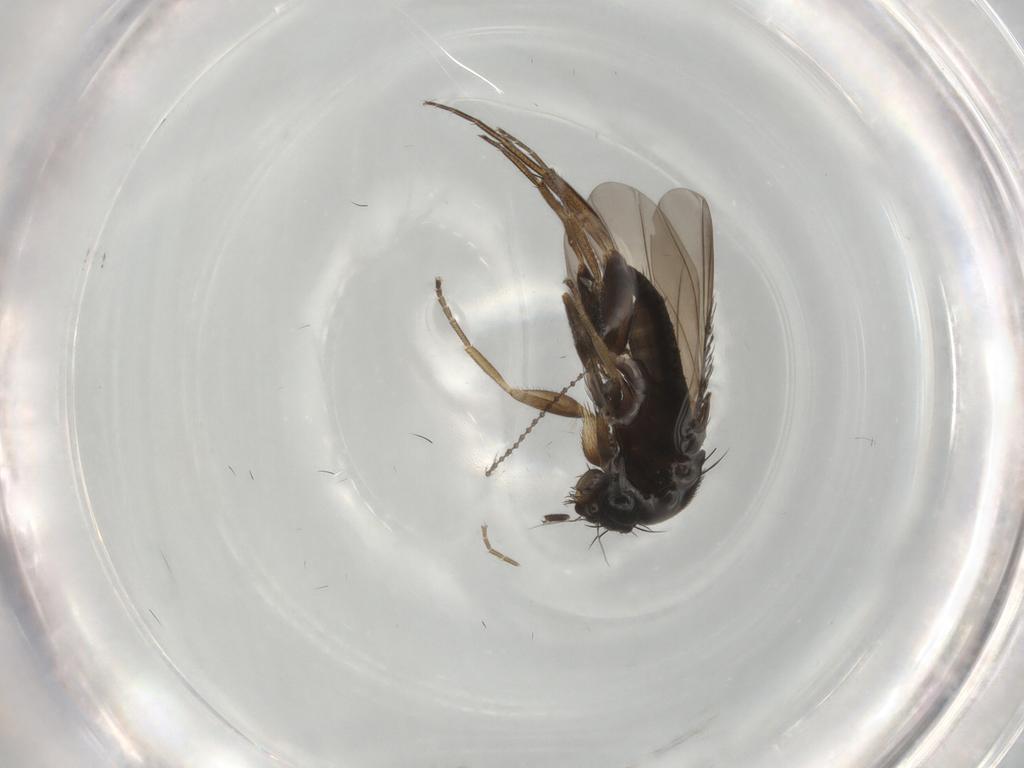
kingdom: Animalia
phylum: Arthropoda
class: Insecta
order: Diptera
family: Phoridae
